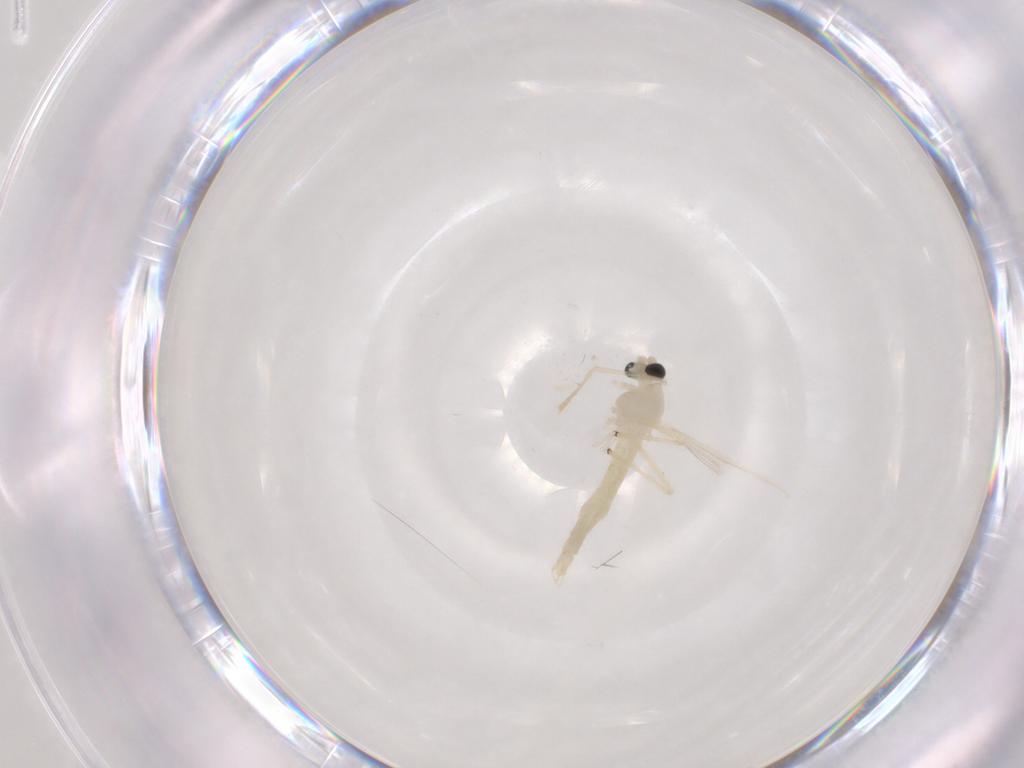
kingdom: Animalia
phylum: Arthropoda
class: Insecta
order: Diptera
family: Chironomidae
